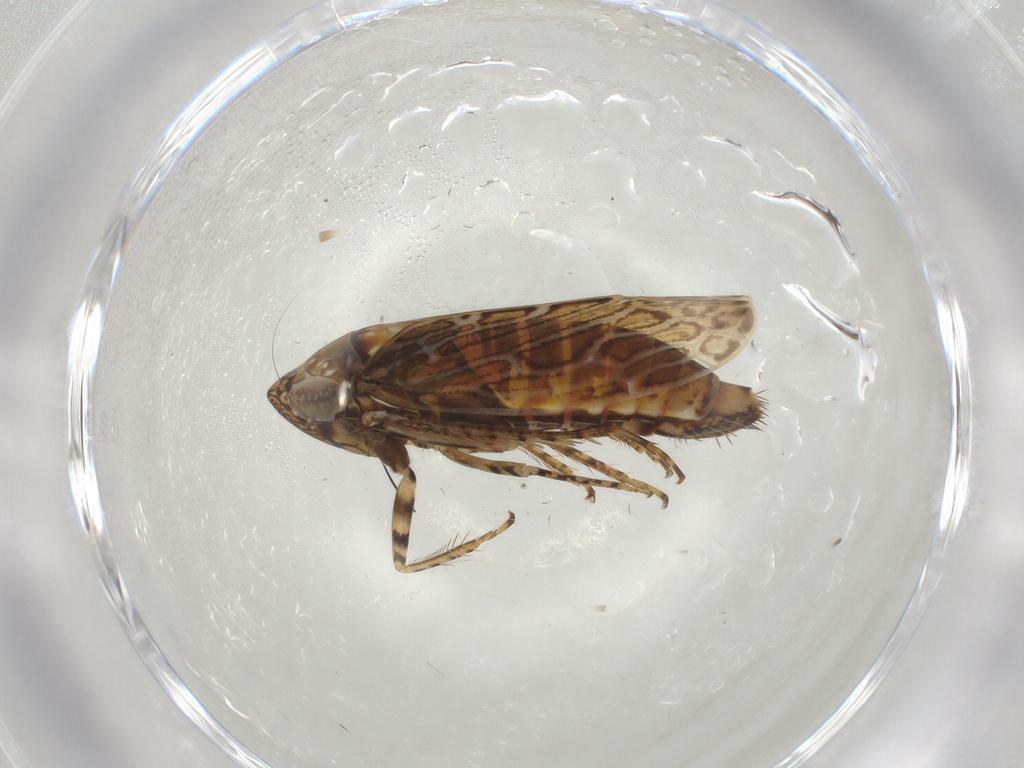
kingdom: Animalia
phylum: Arthropoda
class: Insecta
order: Hemiptera
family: Cicadellidae
